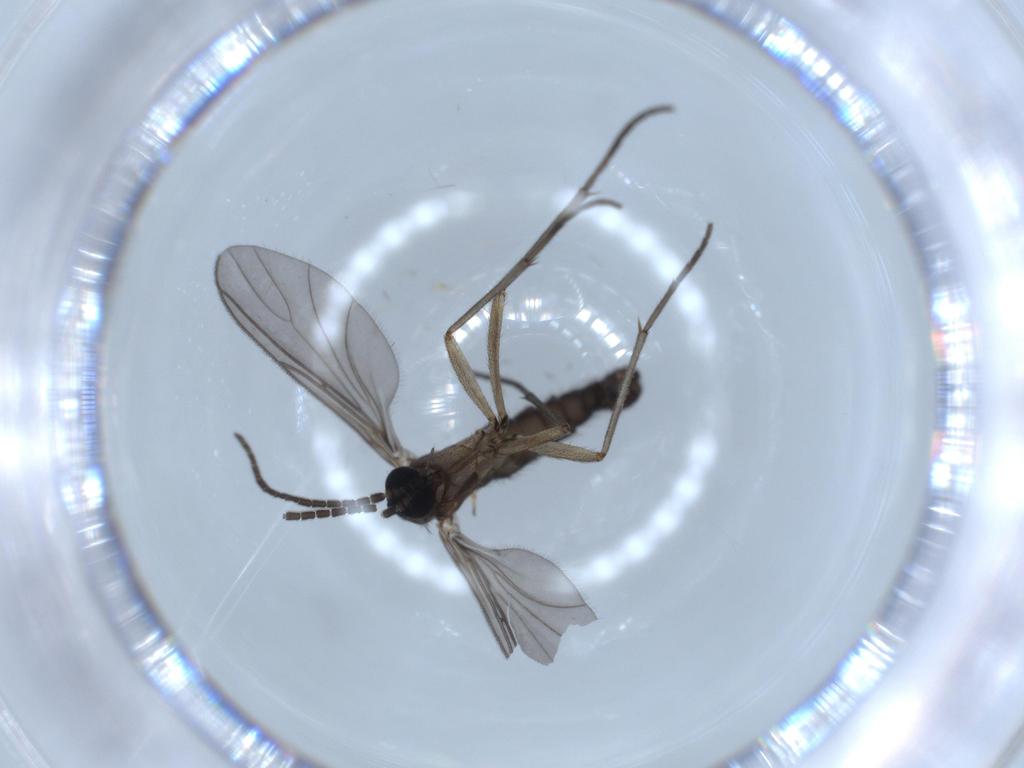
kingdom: Animalia
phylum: Arthropoda
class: Insecta
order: Diptera
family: Sciaridae
